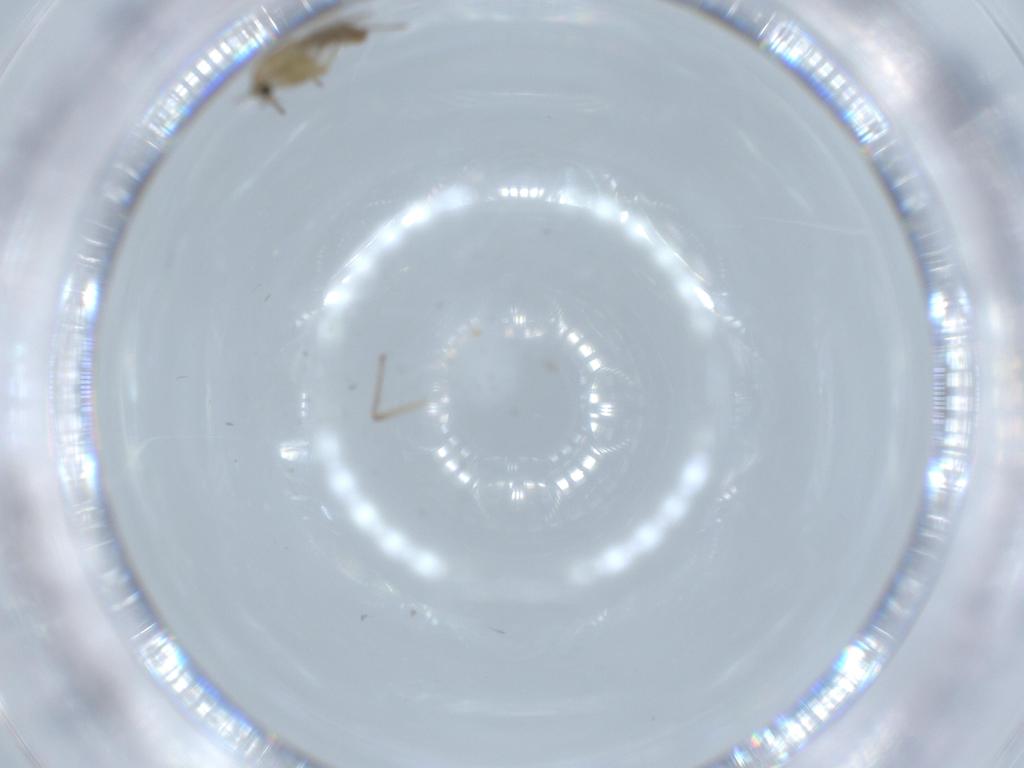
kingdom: Animalia
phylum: Arthropoda
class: Insecta
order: Diptera
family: Chironomidae
